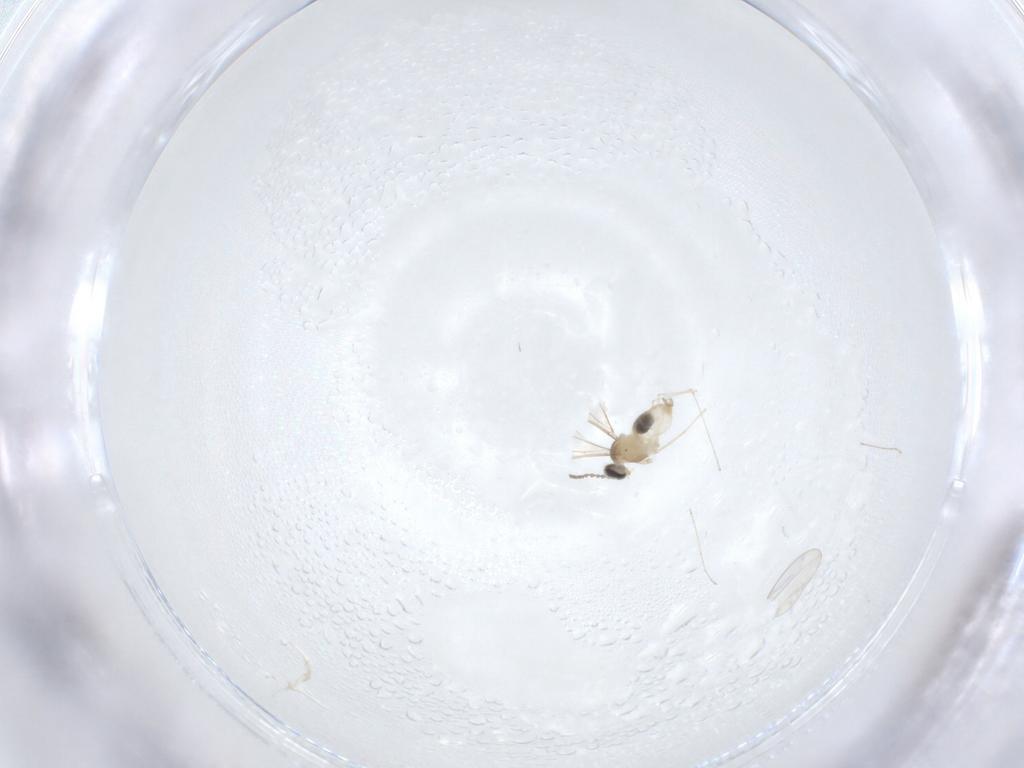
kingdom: Animalia
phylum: Arthropoda
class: Insecta
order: Diptera
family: Cecidomyiidae
